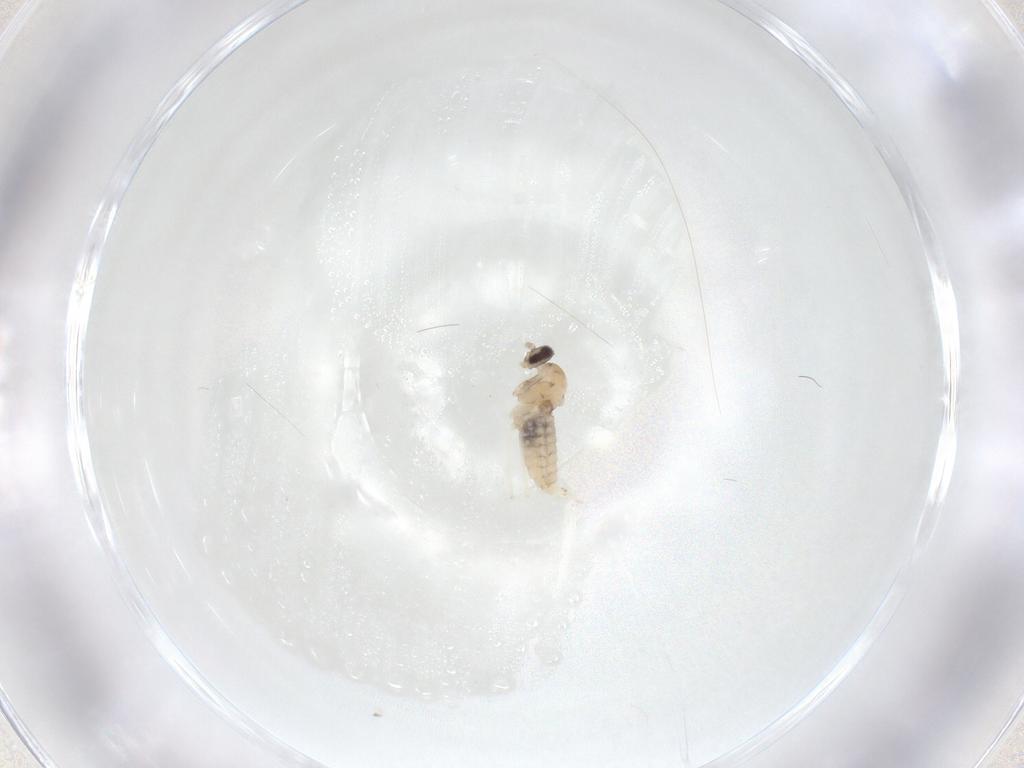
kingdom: Animalia
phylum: Arthropoda
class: Insecta
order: Diptera
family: Cecidomyiidae
